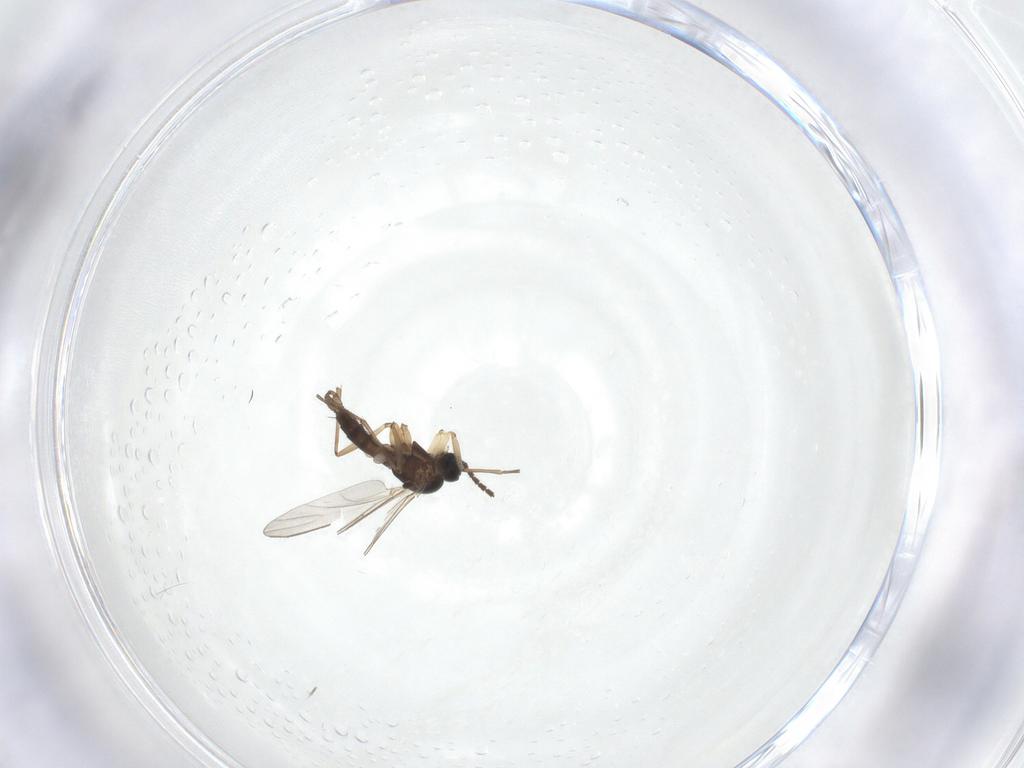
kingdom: Animalia
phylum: Arthropoda
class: Insecta
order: Diptera
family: Sciaridae
